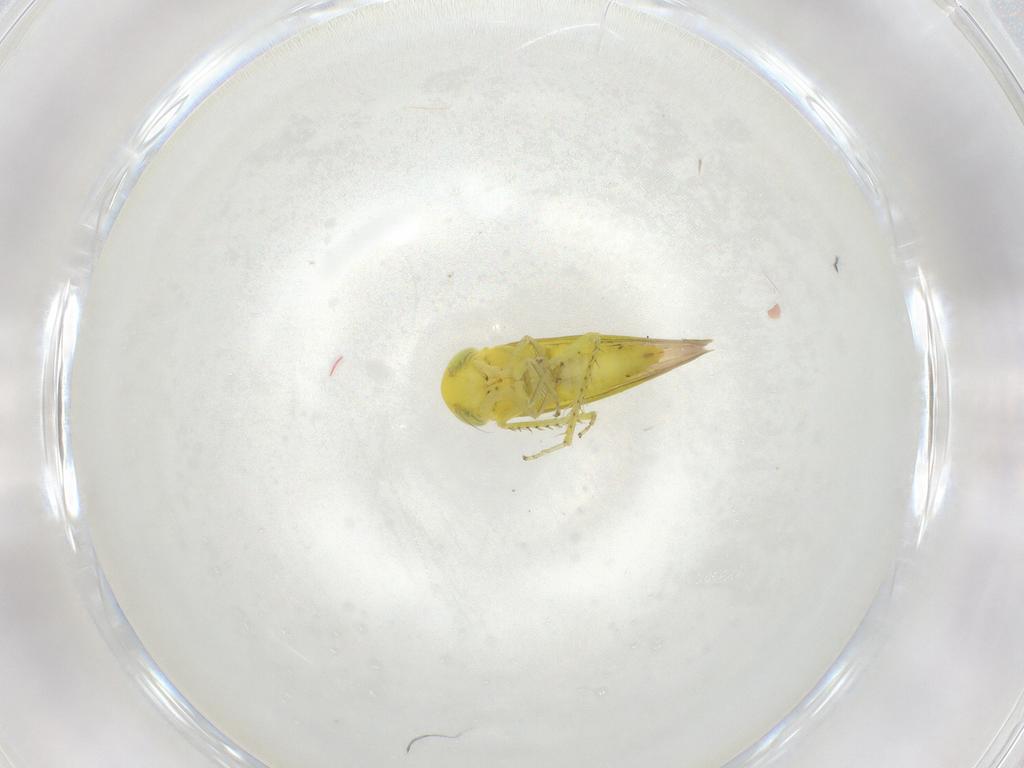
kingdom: Animalia
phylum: Arthropoda
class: Insecta
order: Hemiptera
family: Cicadellidae
